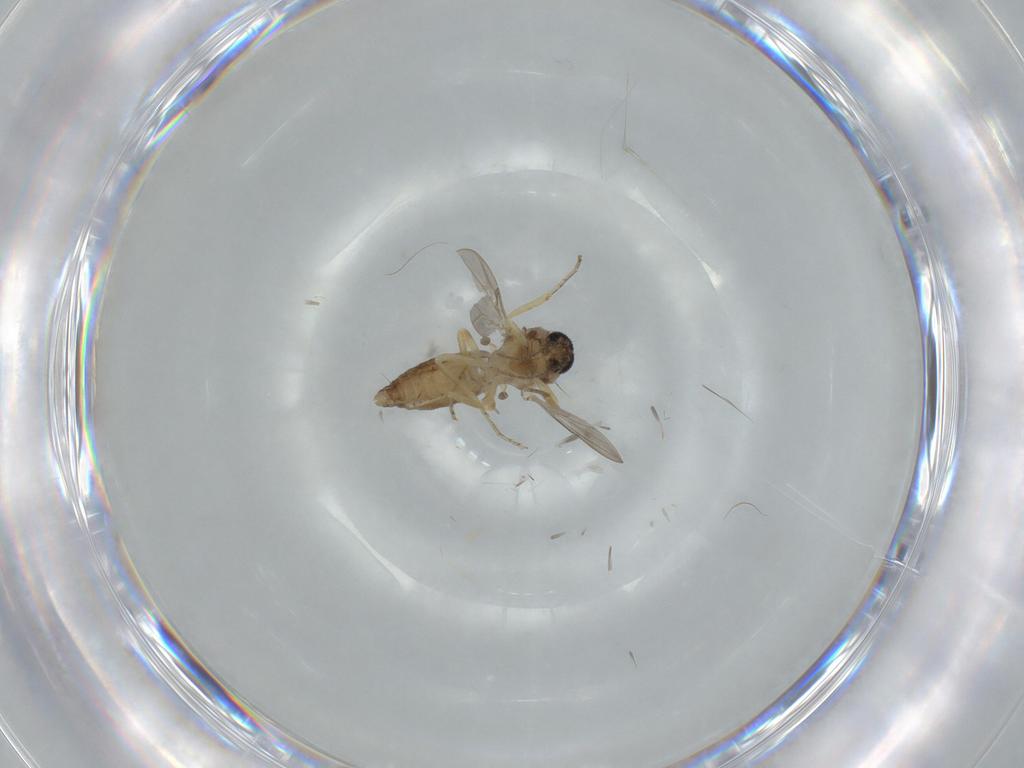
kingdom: Animalia
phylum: Arthropoda
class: Insecta
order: Diptera
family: Ceratopogonidae
